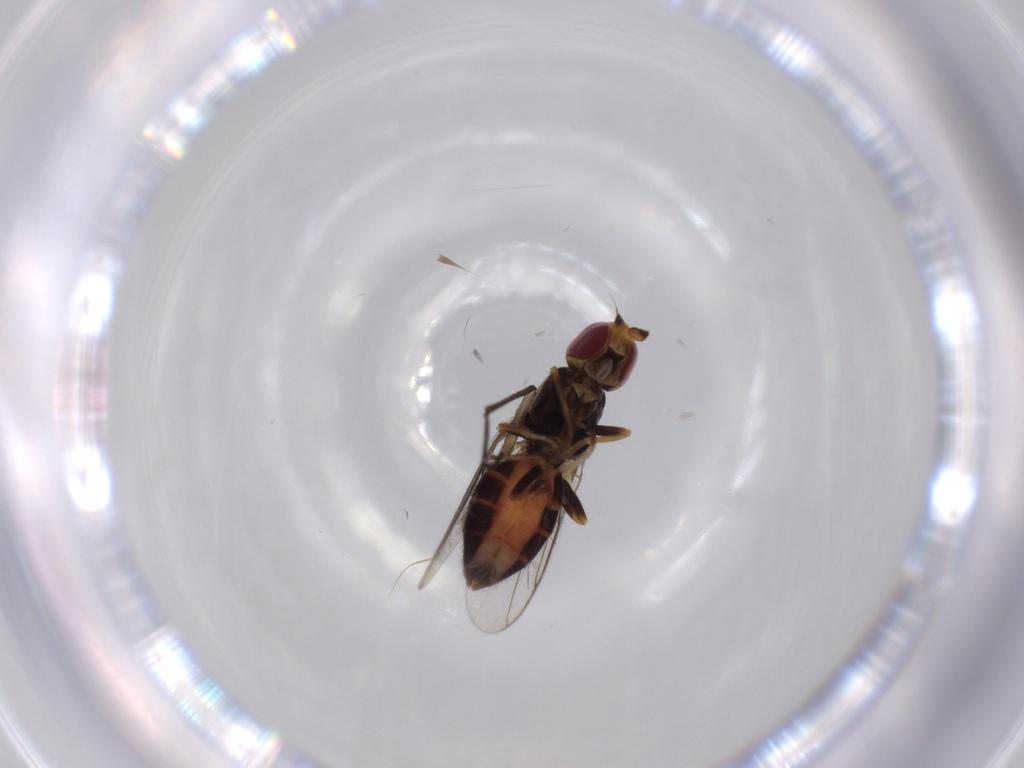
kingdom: Animalia
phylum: Arthropoda
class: Insecta
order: Diptera
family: Chloropidae
